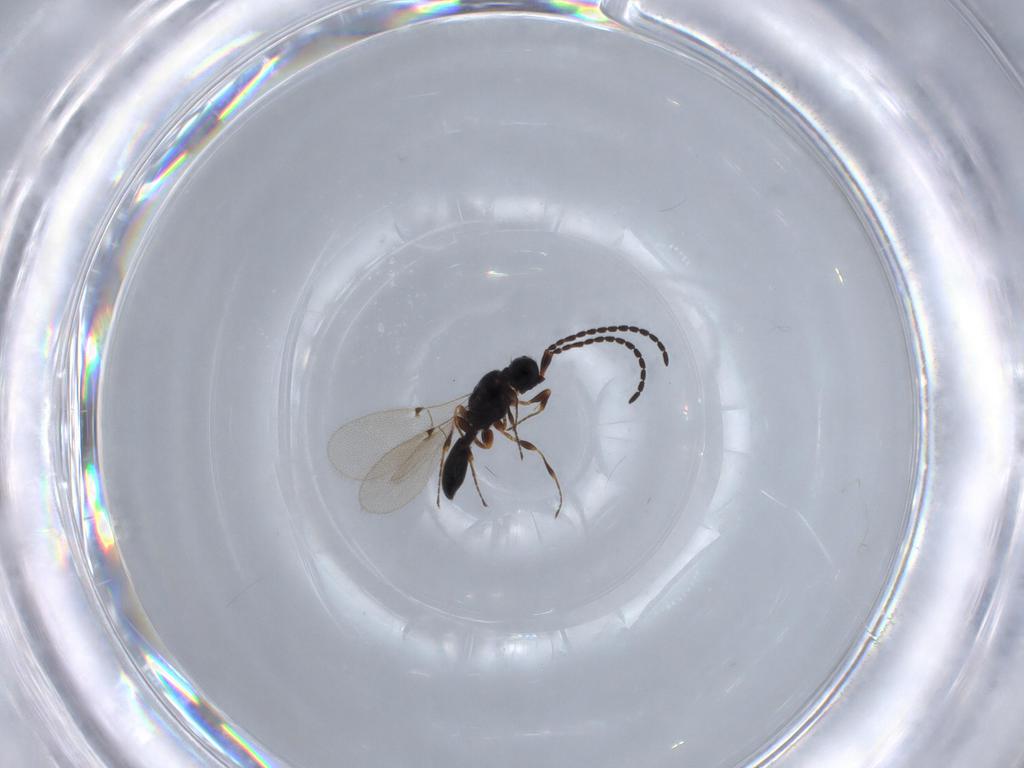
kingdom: Animalia
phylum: Arthropoda
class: Insecta
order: Hymenoptera
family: Diapriidae
